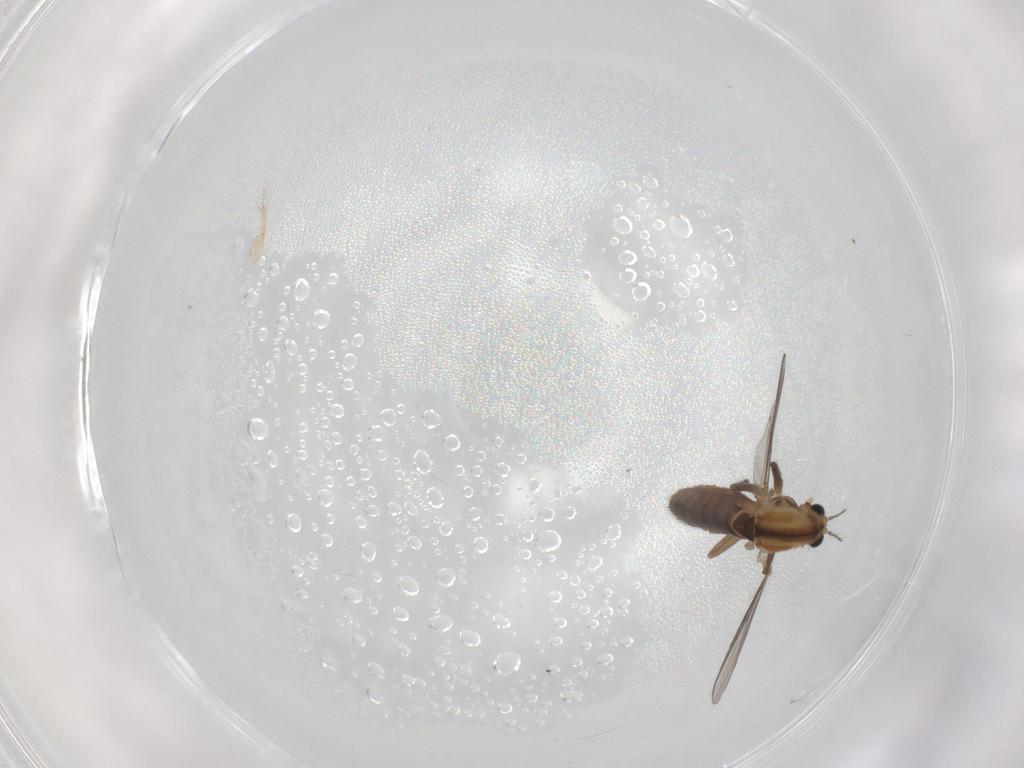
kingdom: Animalia
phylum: Arthropoda
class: Insecta
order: Diptera
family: Chironomidae
